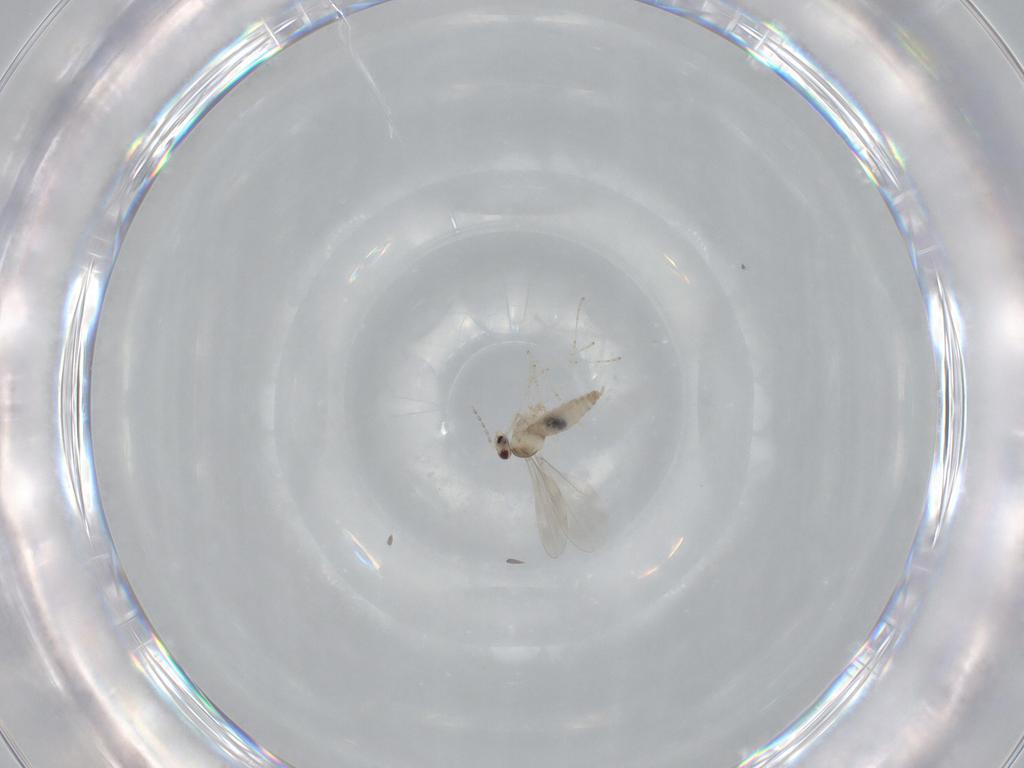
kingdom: Animalia
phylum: Arthropoda
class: Insecta
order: Diptera
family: Cecidomyiidae
